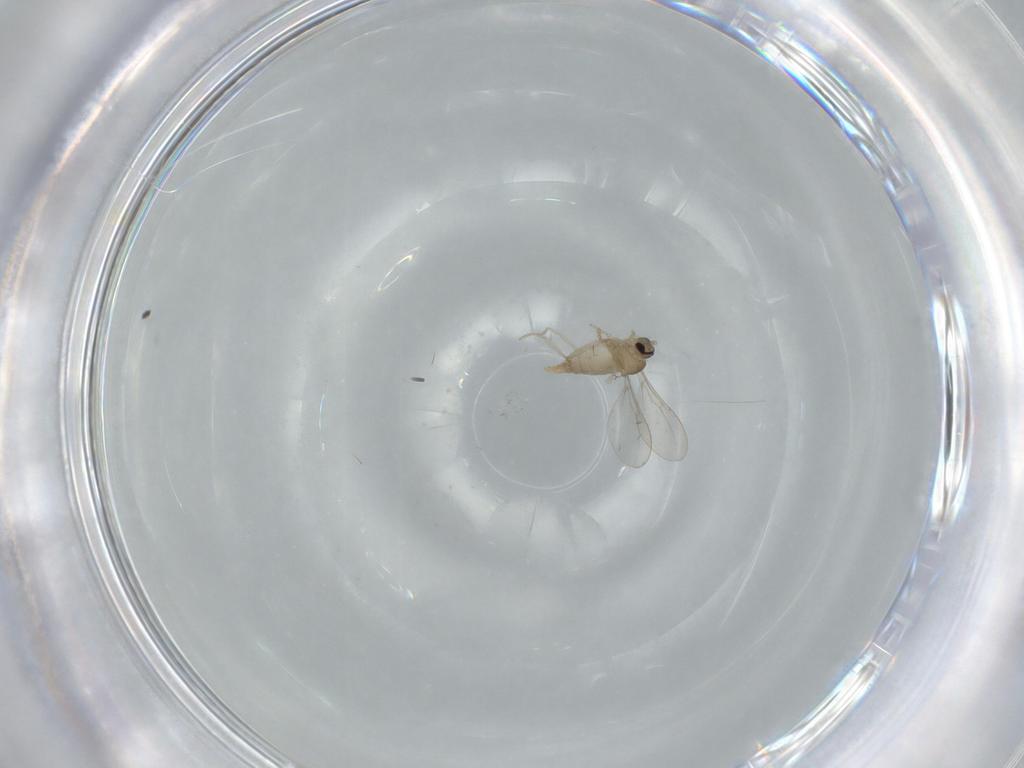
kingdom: Animalia
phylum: Arthropoda
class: Insecta
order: Diptera
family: Cecidomyiidae
